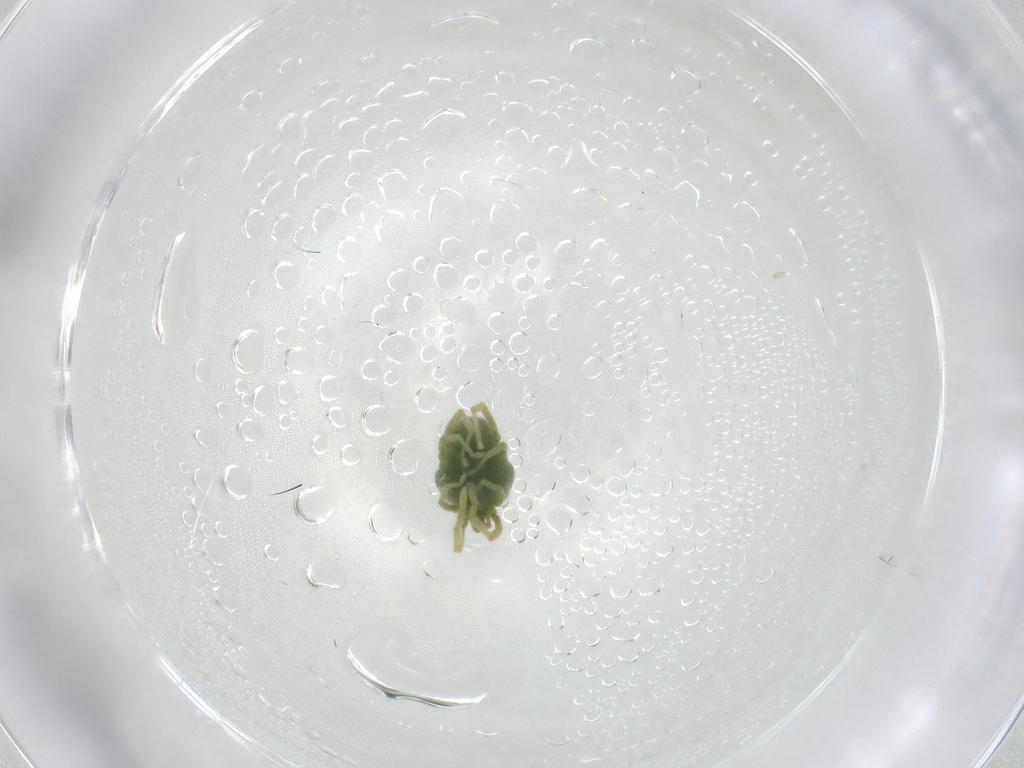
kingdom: Animalia
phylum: Arthropoda
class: Arachnida
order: Trombidiformes
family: Erythraeidae
